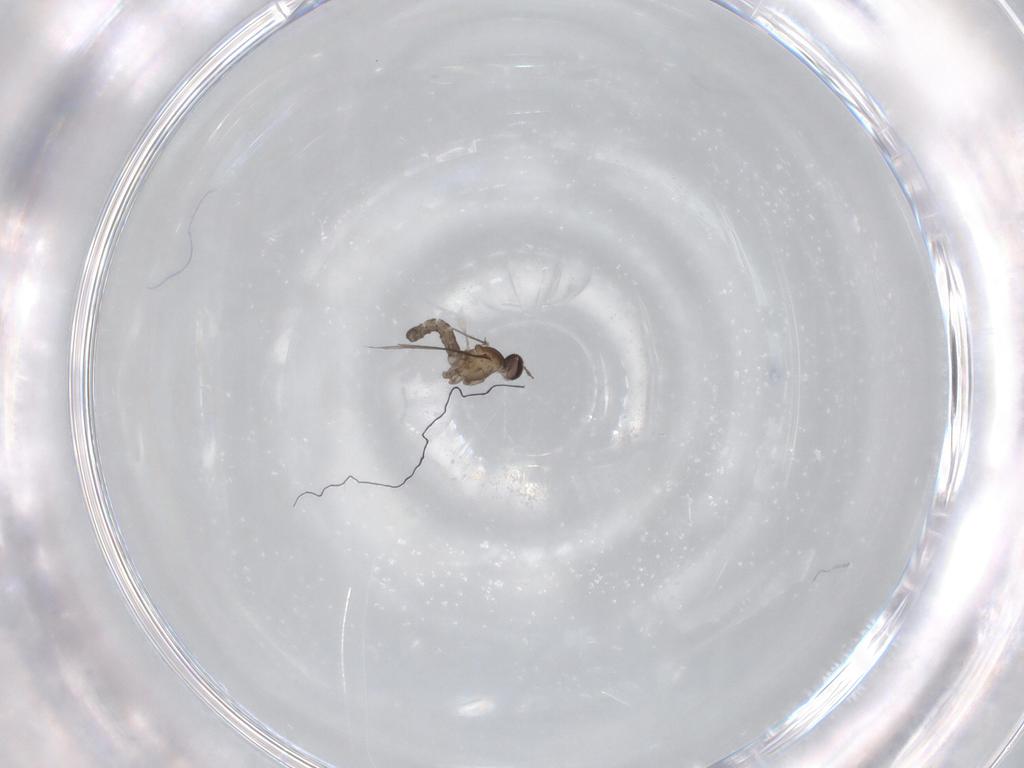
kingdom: Animalia
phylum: Arthropoda
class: Insecta
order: Diptera
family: Cecidomyiidae
